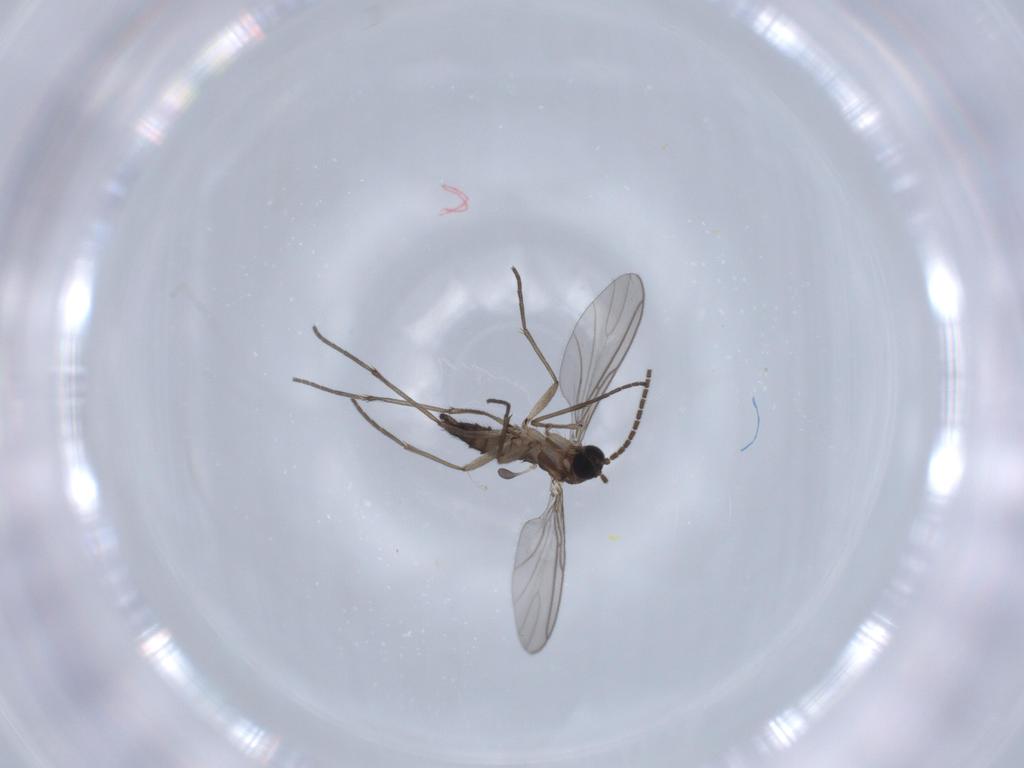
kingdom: Animalia
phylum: Arthropoda
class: Insecta
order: Diptera
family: Sciaridae
